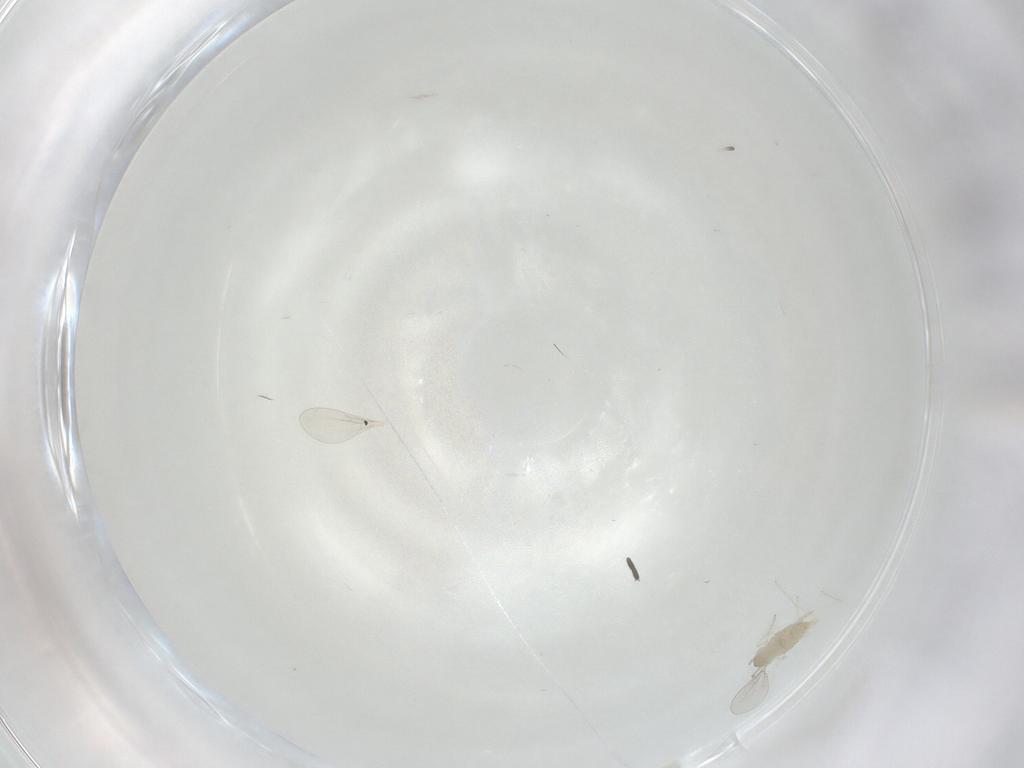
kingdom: Animalia
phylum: Arthropoda
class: Insecta
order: Diptera
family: Cecidomyiidae
